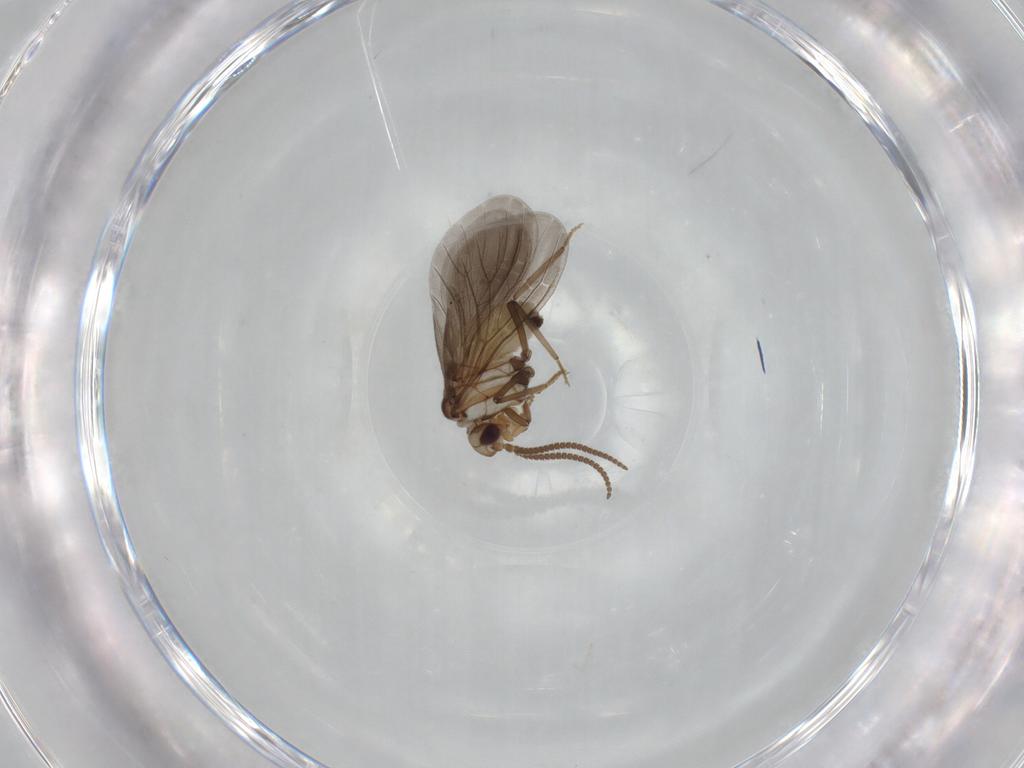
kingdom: Animalia
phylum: Arthropoda
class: Insecta
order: Neuroptera
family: Coniopterygidae
